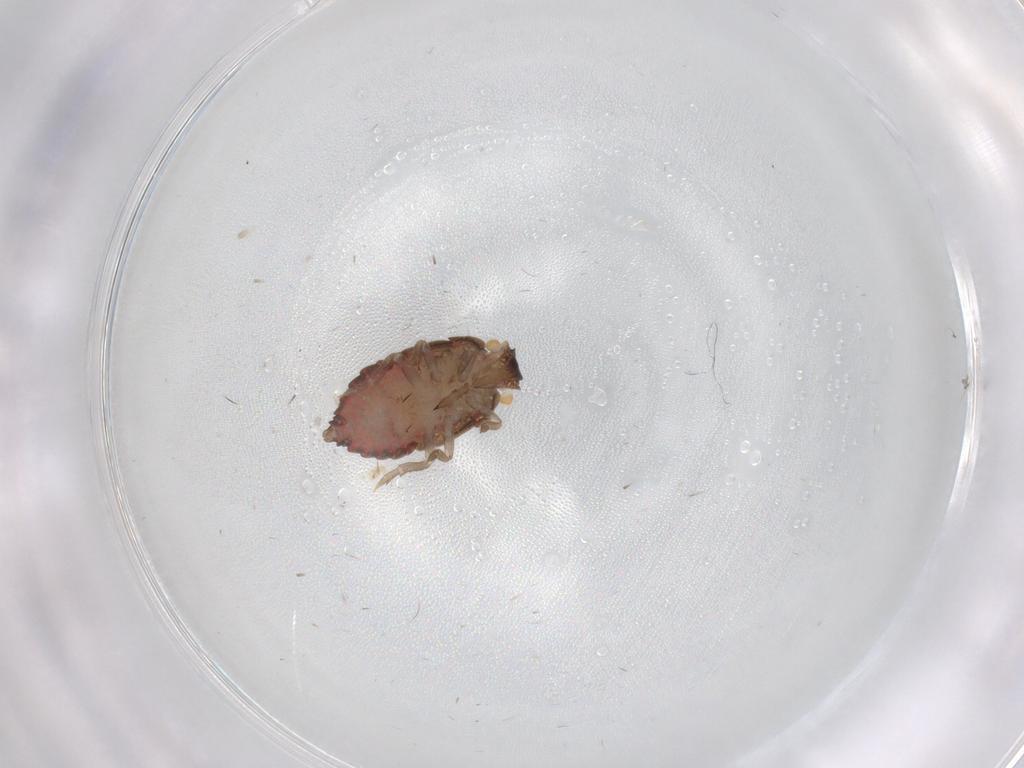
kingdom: Animalia
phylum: Arthropoda
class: Insecta
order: Hemiptera
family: Derbidae
